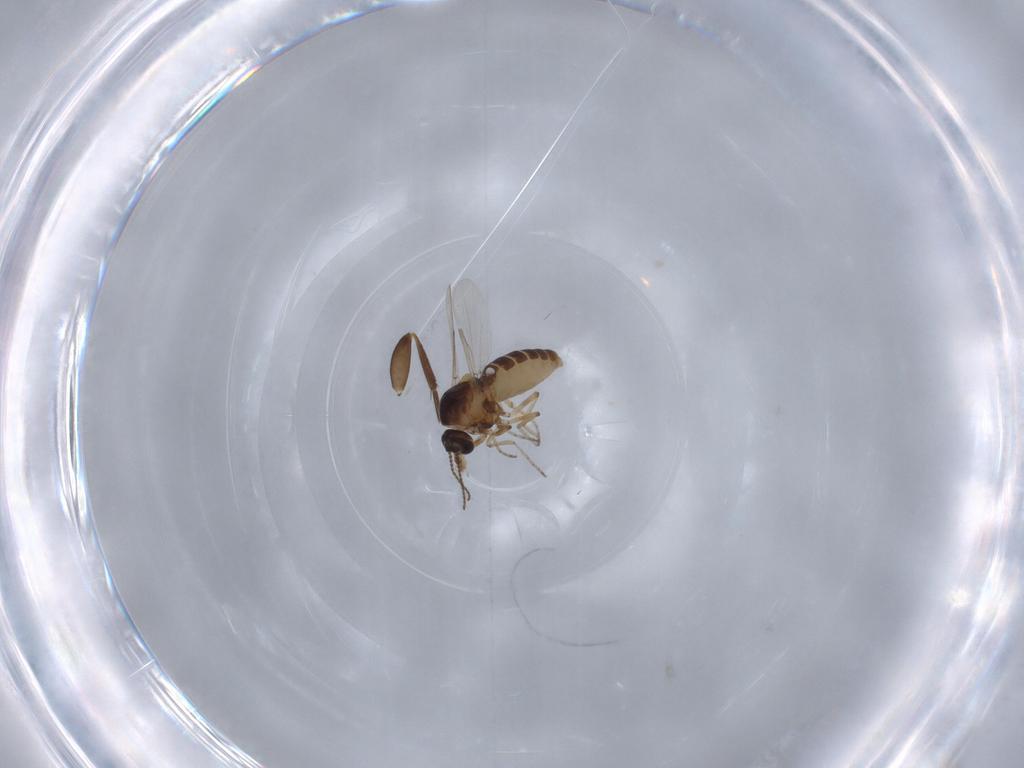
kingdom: Animalia
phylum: Arthropoda
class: Insecta
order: Diptera
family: Ceratopogonidae
